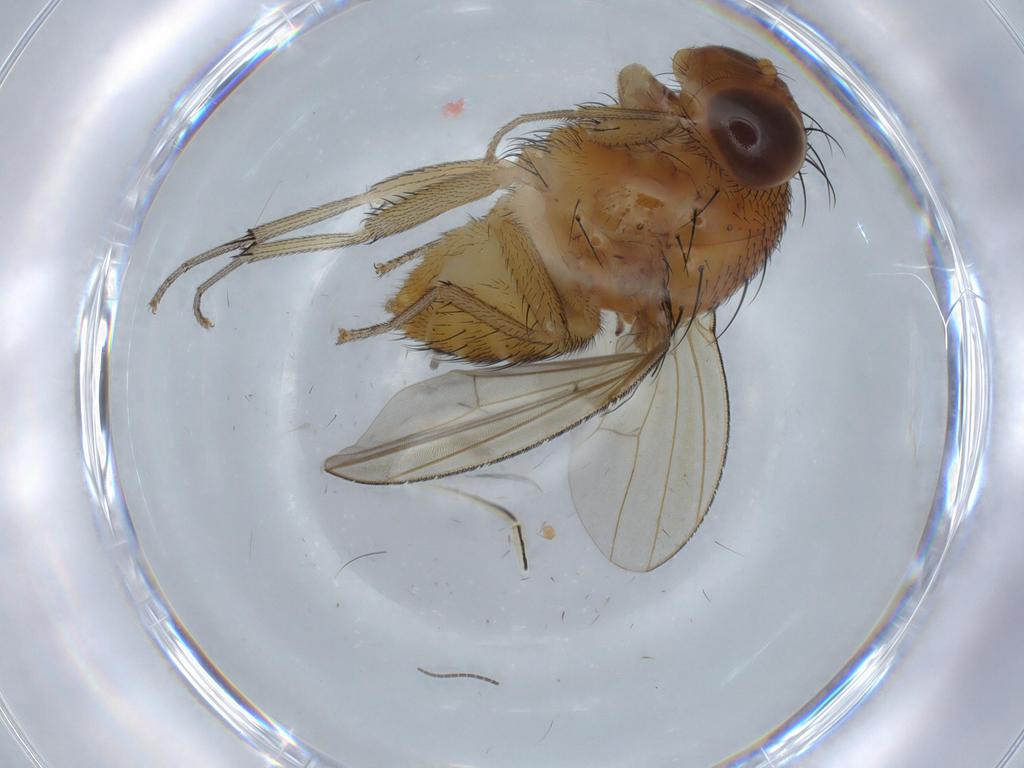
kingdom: Animalia
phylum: Arthropoda
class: Insecta
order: Diptera
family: Lauxaniidae
